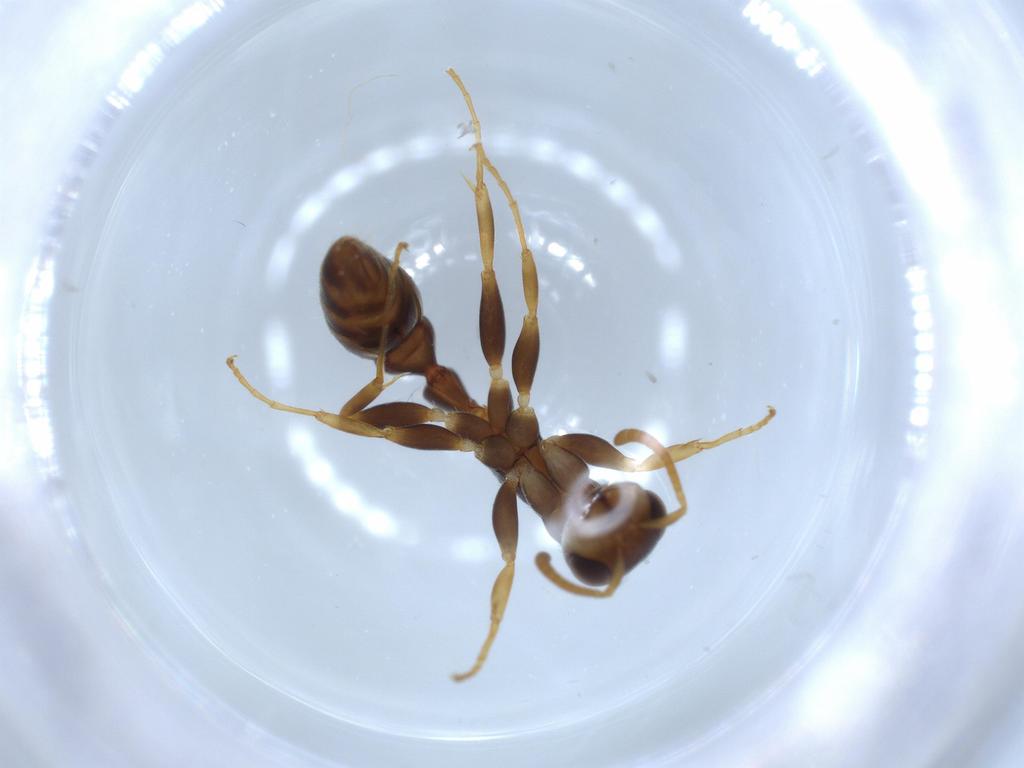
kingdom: Animalia
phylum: Arthropoda
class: Insecta
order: Hymenoptera
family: Formicidae
